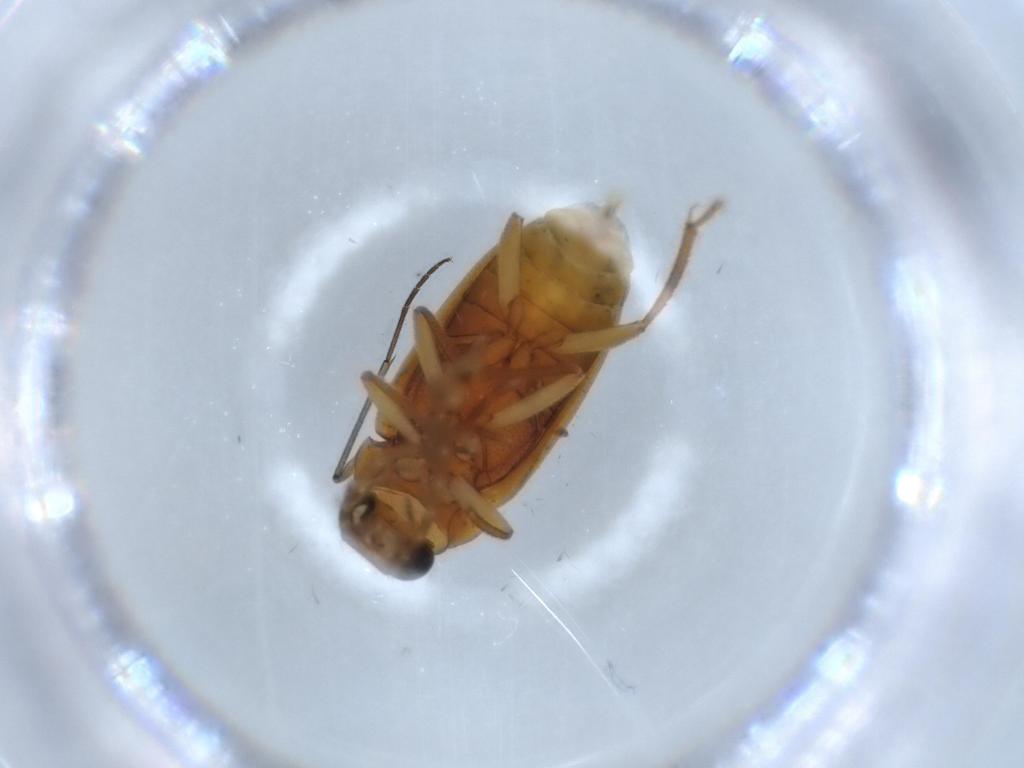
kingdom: Animalia
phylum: Arthropoda
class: Insecta
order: Coleoptera
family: Ptilodactylidae
